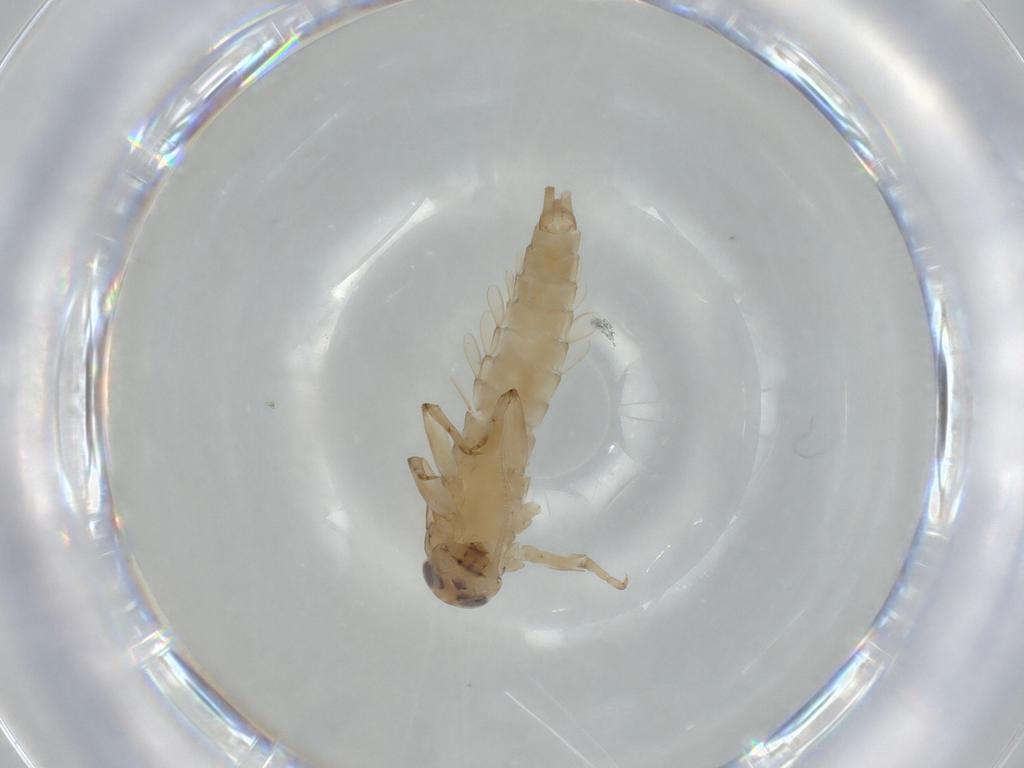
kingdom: Animalia
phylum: Arthropoda
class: Insecta
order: Ephemeroptera
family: Baetidae
